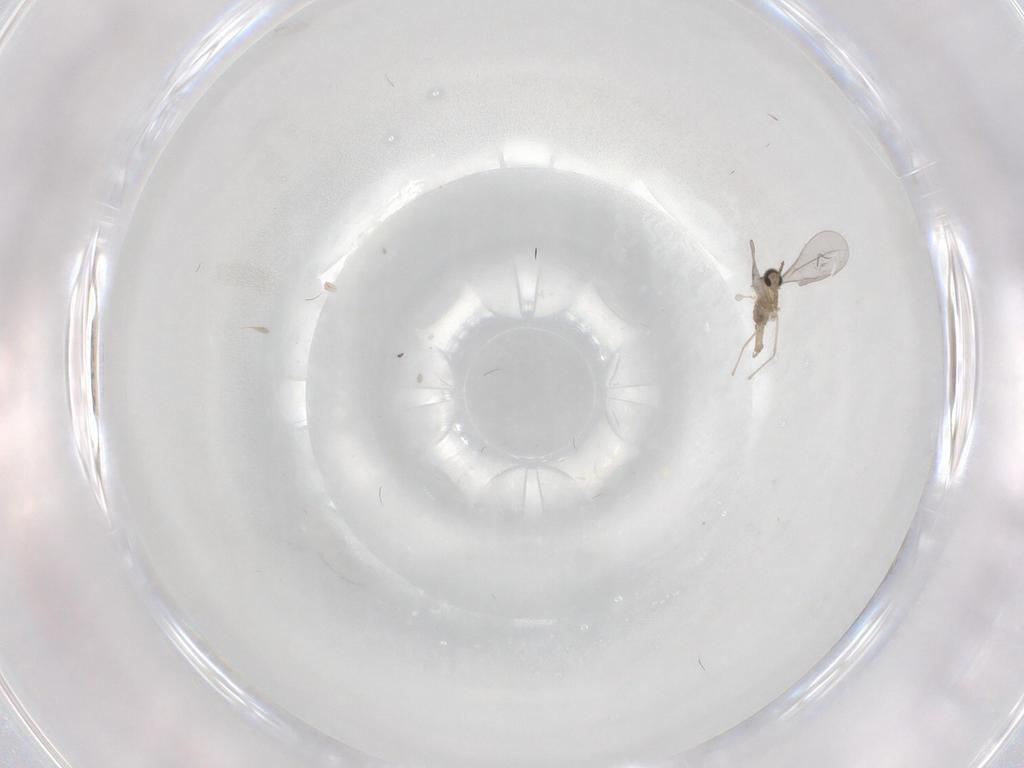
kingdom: Animalia
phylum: Arthropoda
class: Insecta
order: Diptera
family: Cecidomyiidae
